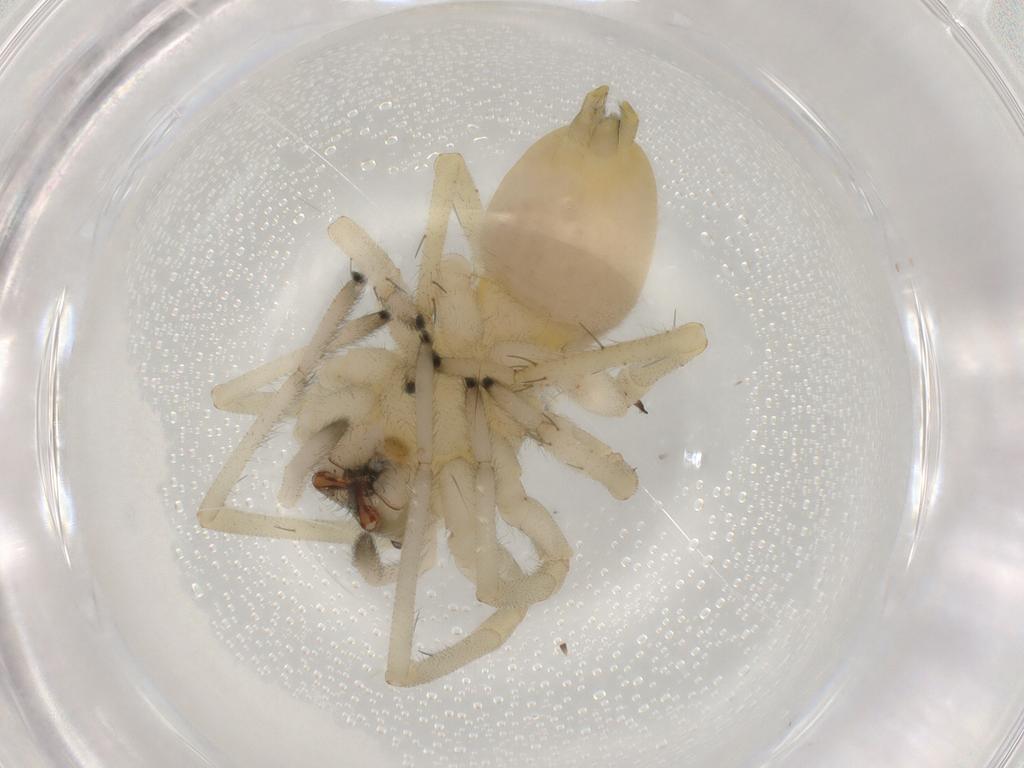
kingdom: Animalia
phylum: Arthropoda
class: Arachnida
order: Araneae
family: Cheiracanthiidae
